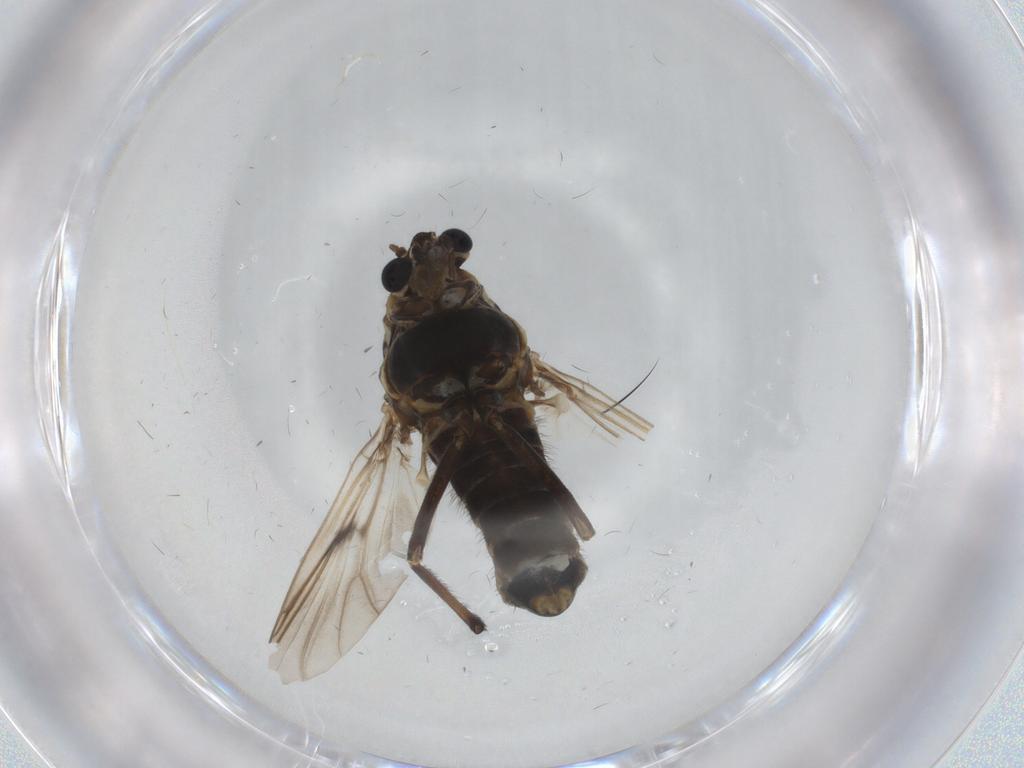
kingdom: Animalia
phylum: Arthropoda
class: Insecta
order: Diptera
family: Chironomidae
